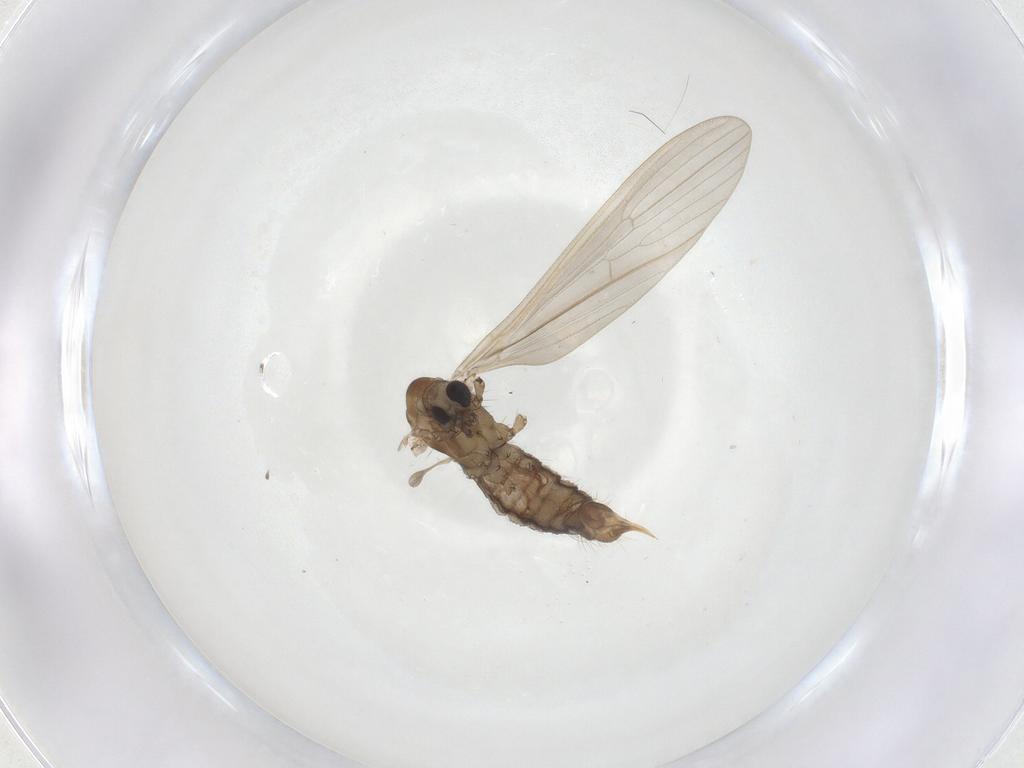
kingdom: Animalia
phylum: Arthropoda
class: Insecta
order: Diptera
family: Limoniidae
